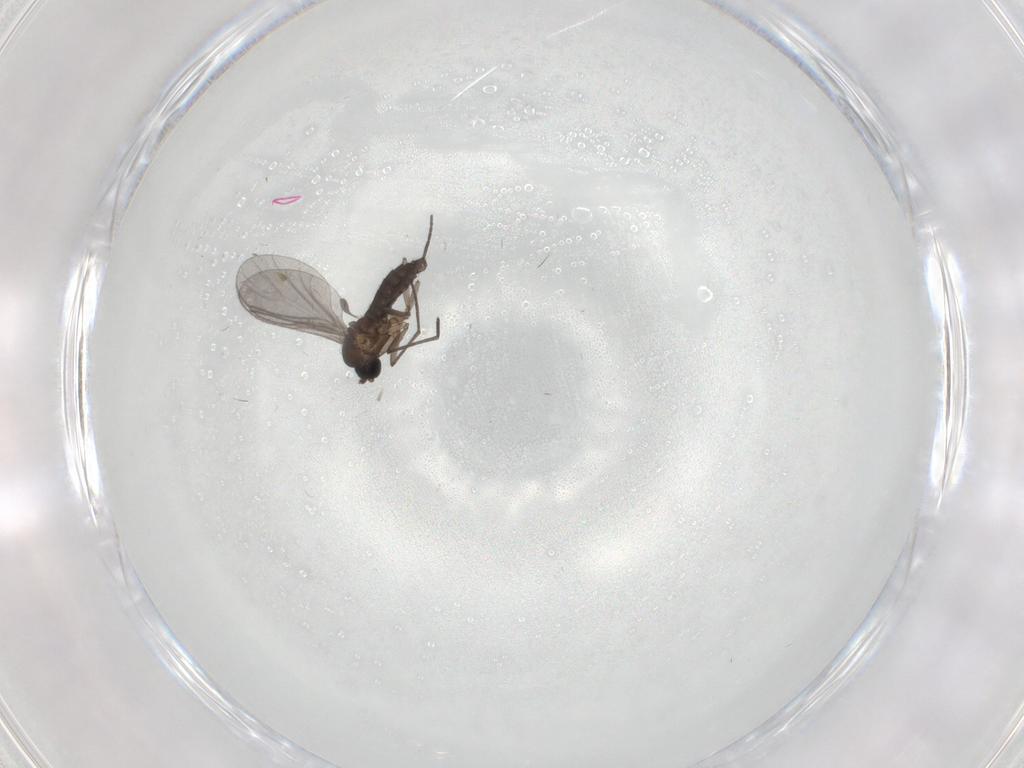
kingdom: Animalia
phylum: Arthropoda
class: Insecta
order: Diptera
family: Sciaridae
